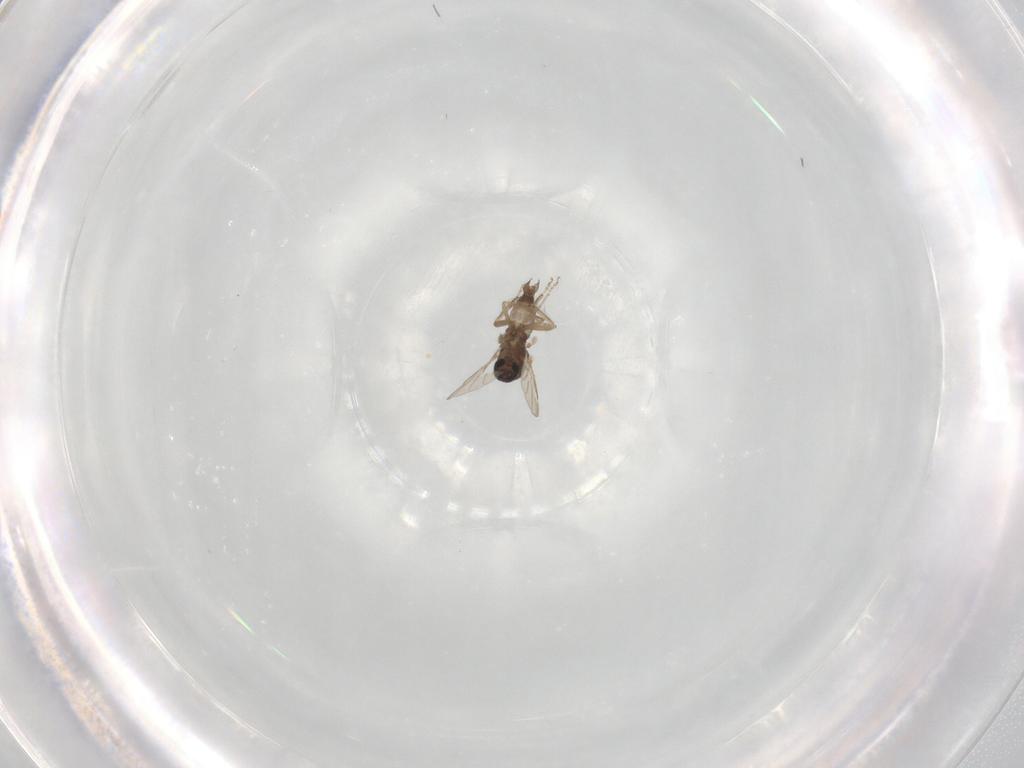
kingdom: Animalia
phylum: Arthropoda
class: Insecta
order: Diptera
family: Ceratopogonidae
